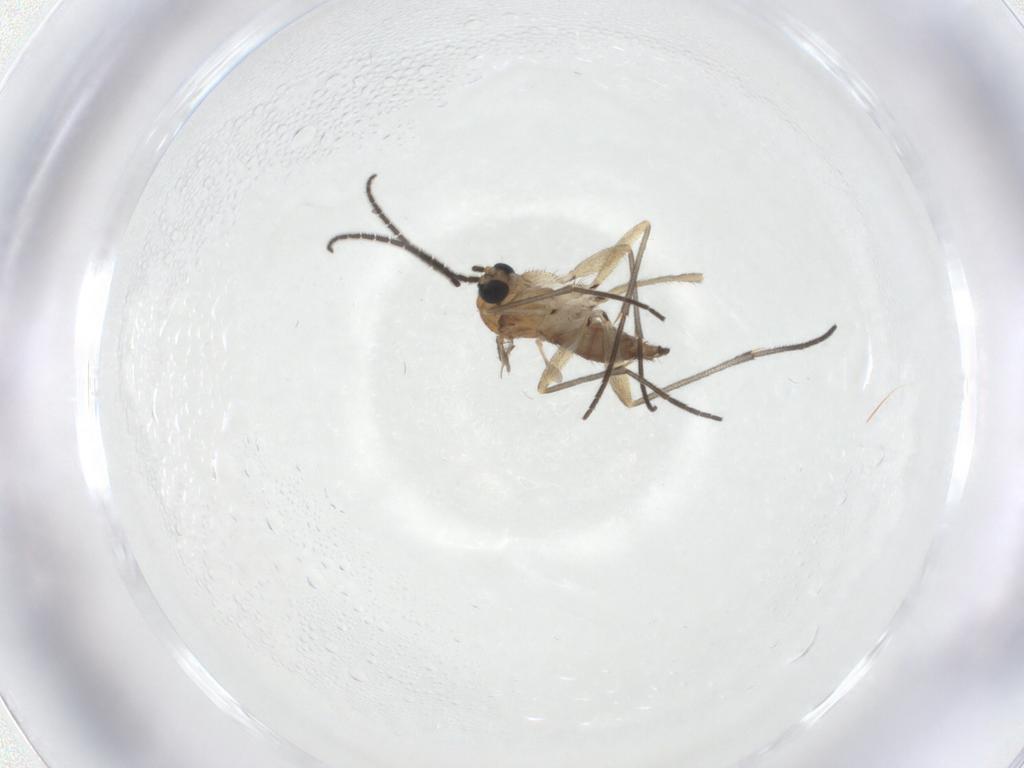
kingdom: Animalia
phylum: Arthropoda
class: Insecta
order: Diptera
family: Sciaridae
